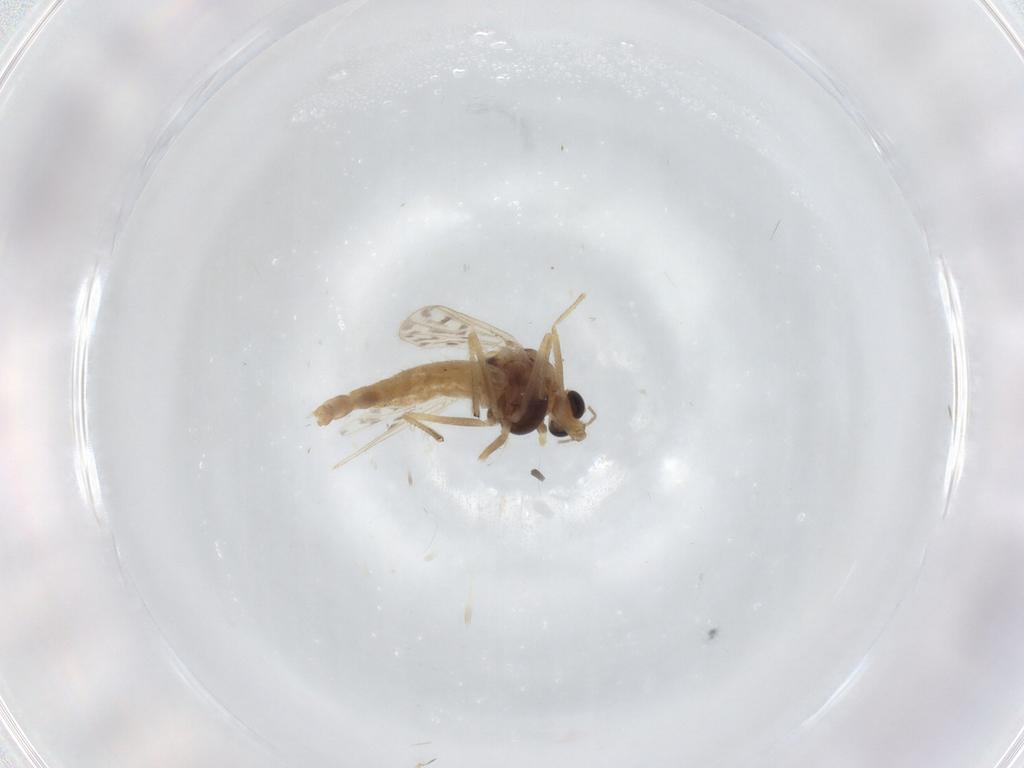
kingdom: Animalia
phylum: Arthropoda
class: Insecta
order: Diptera
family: Chironomidae
